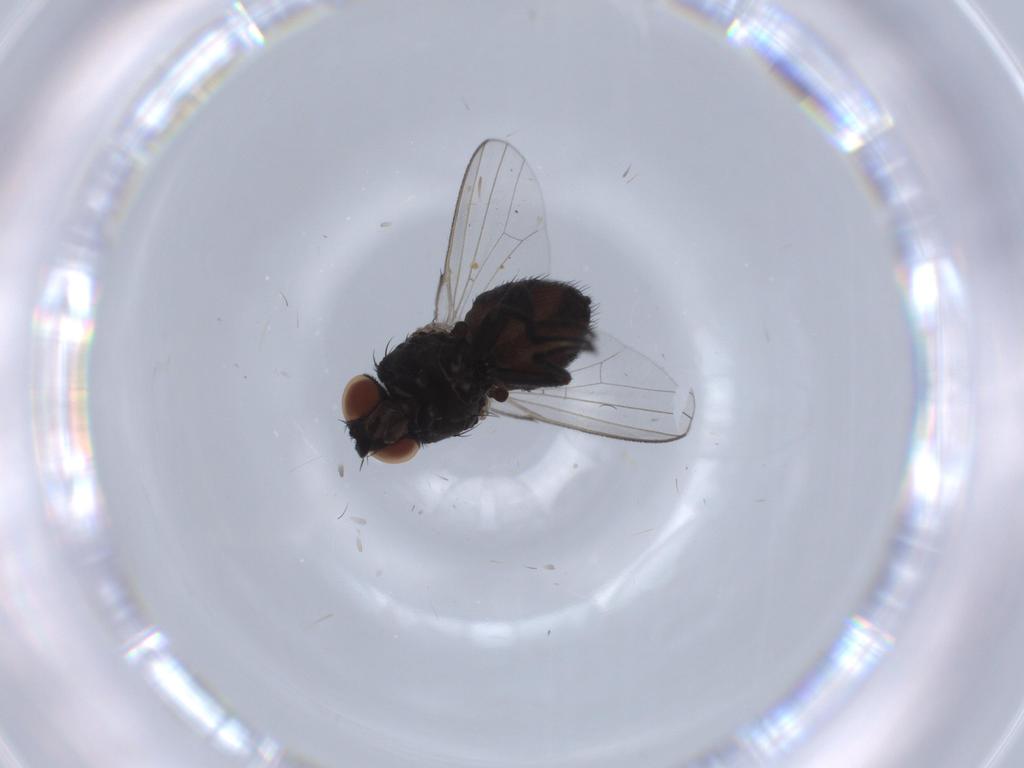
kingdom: Animalia
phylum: Arthropoda
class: Insecta
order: Diptera
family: Milichiidae
